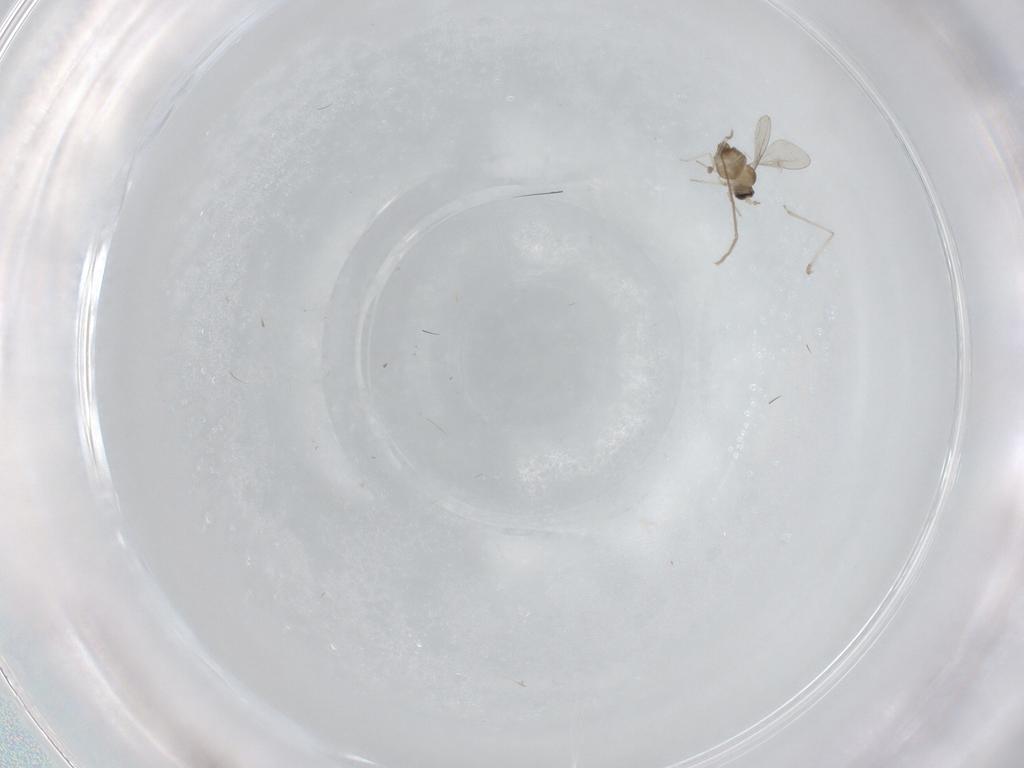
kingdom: Animalia
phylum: Arthropoda
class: Insecta
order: Diptera
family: Cecidomyiidae
